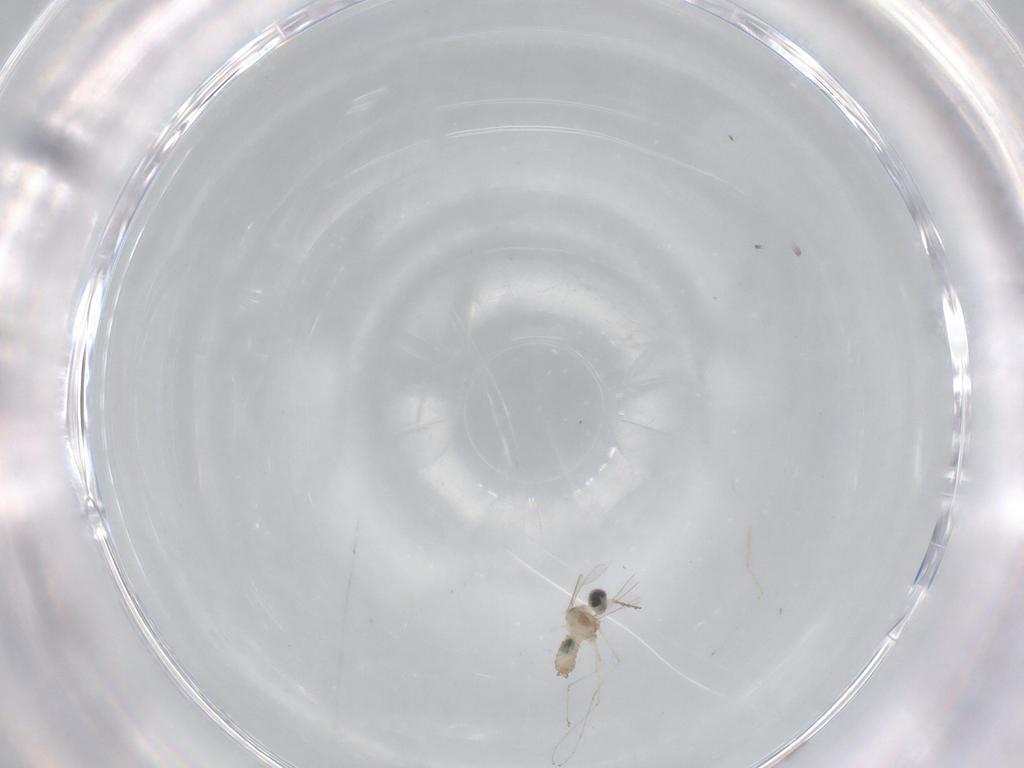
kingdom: Animalia
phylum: Arthropoda
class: Insecta
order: Diptera
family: Cecidomyiidae
